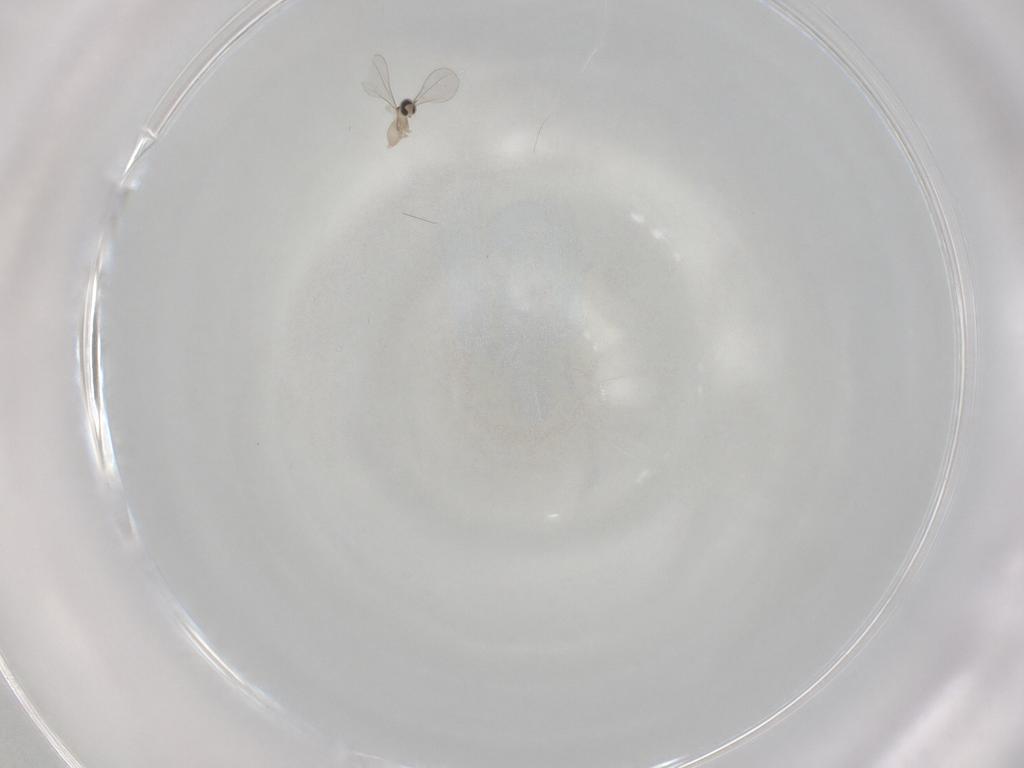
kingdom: Animalia
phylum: Arthropoda
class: Insecta
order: Diptera
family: Cecidomyiidae
